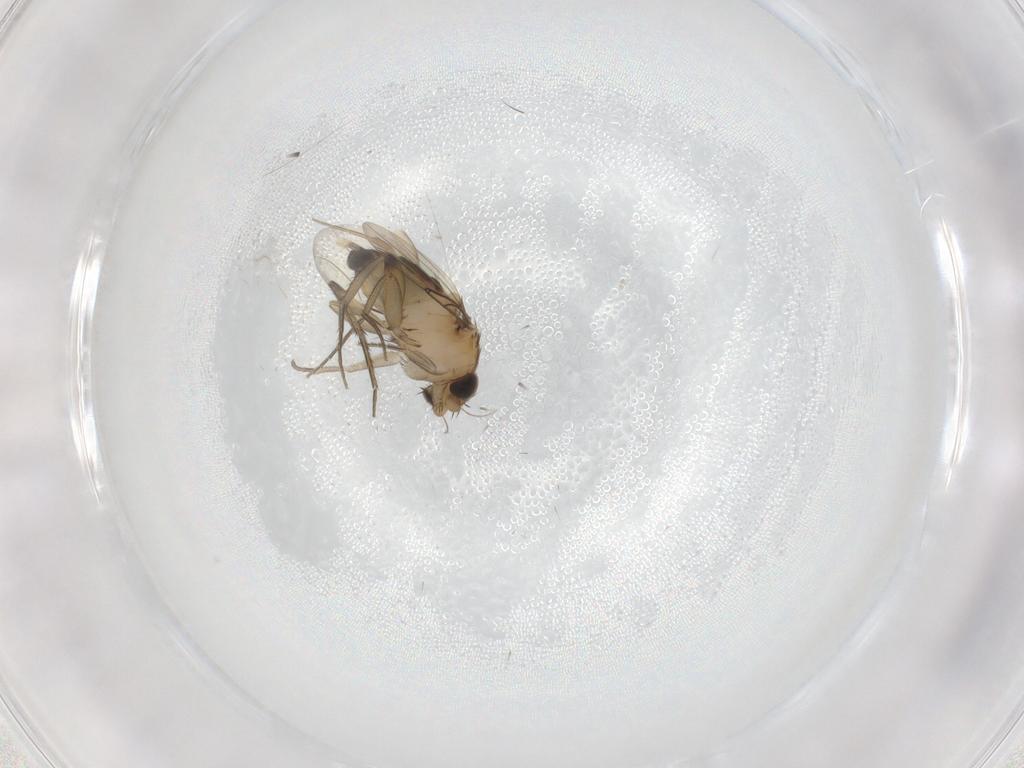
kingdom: Animalia
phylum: Arthropoda
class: Insecta
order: Diptera
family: Phoridae
